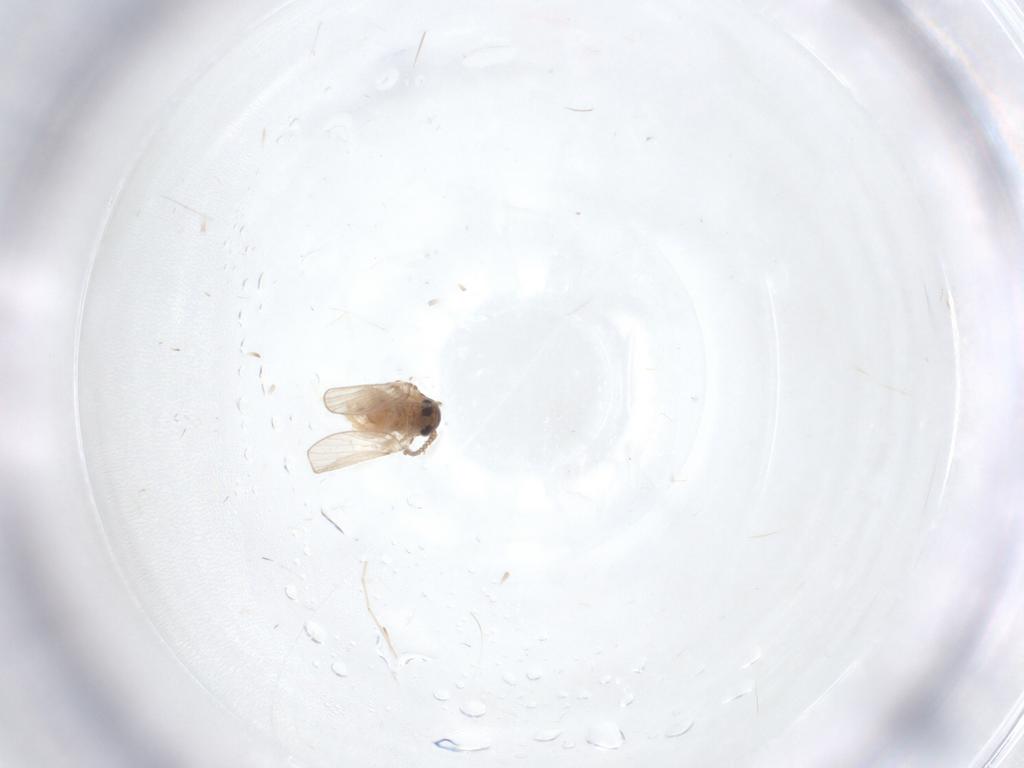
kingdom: Animalia
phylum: Arthropoda
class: Insecta
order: Diptera
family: Psychodidae
